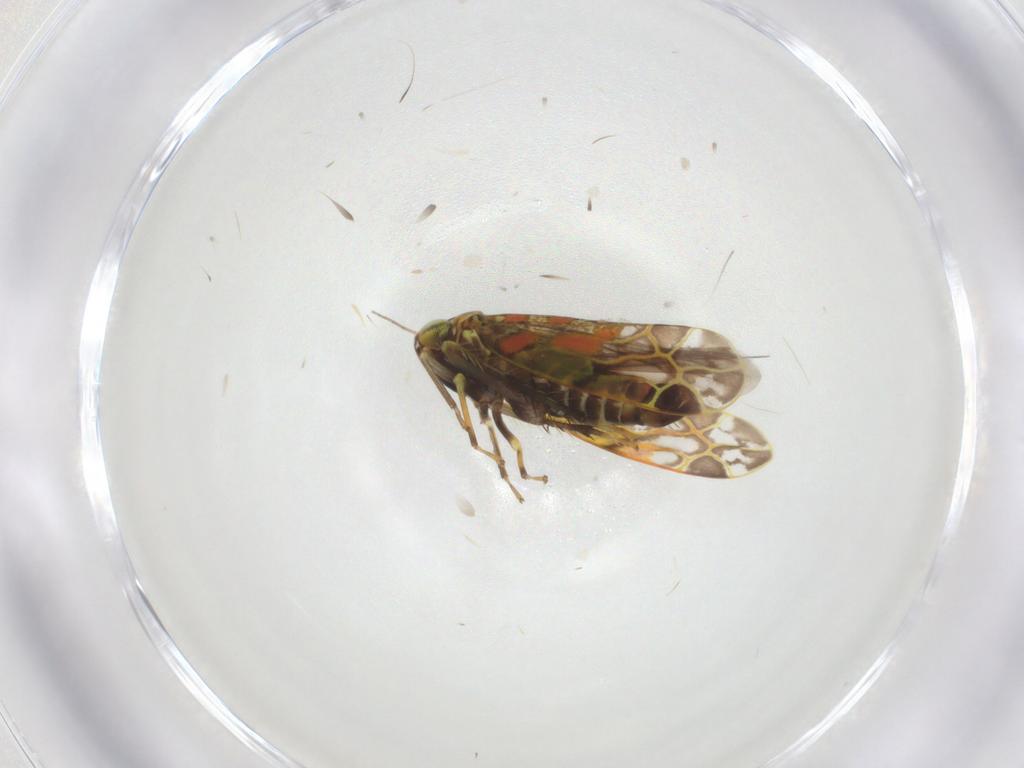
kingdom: Animalia
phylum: Arthropoda
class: Insecta
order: Hemiptera
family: Cicadellidae
